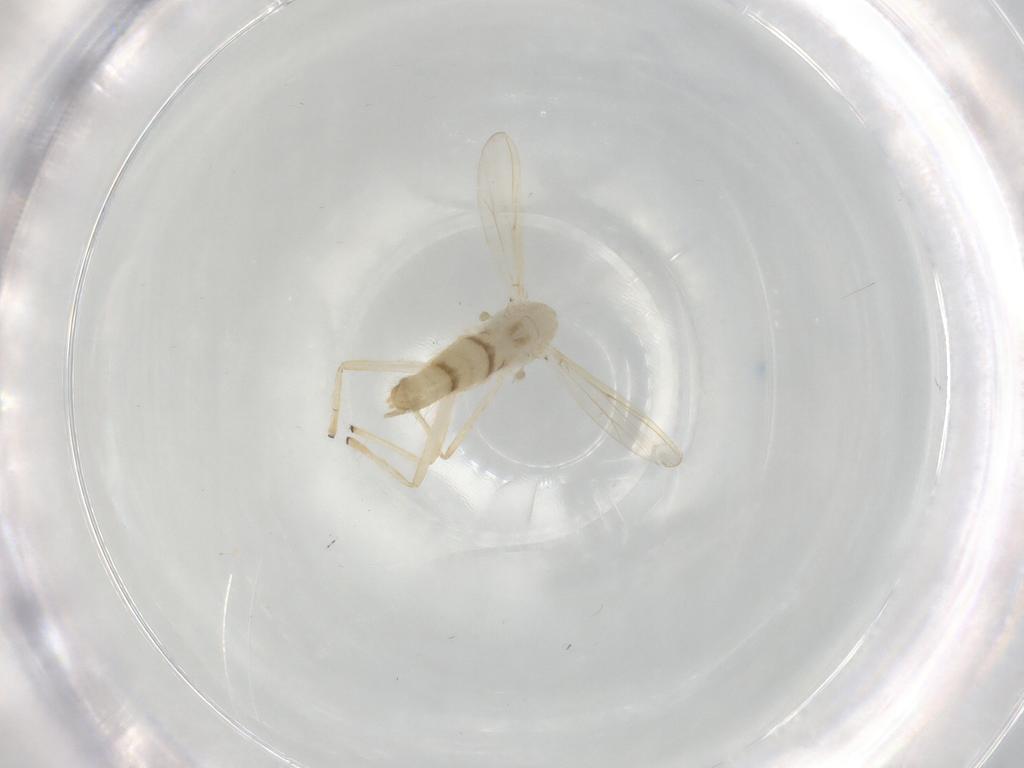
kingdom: Animalia
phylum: Arthropoda
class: Insecta
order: Diptera
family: Chironomidae
